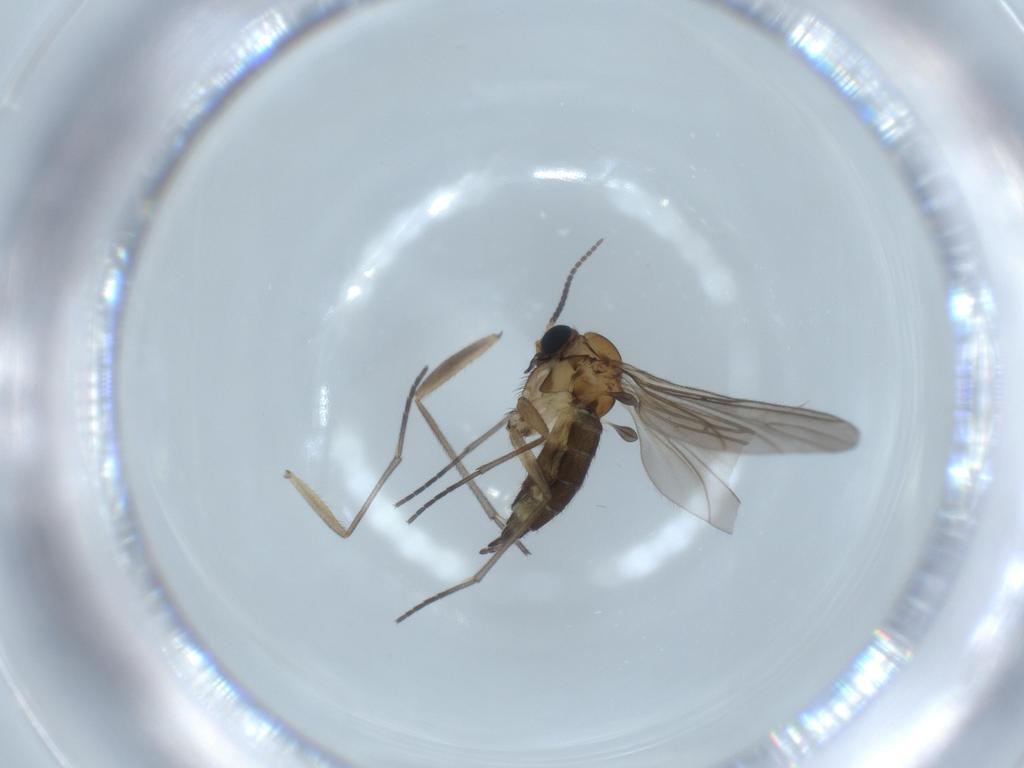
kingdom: Animalia
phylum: Arthropoda
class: Insecta
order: Diptera
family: Sciaridae
